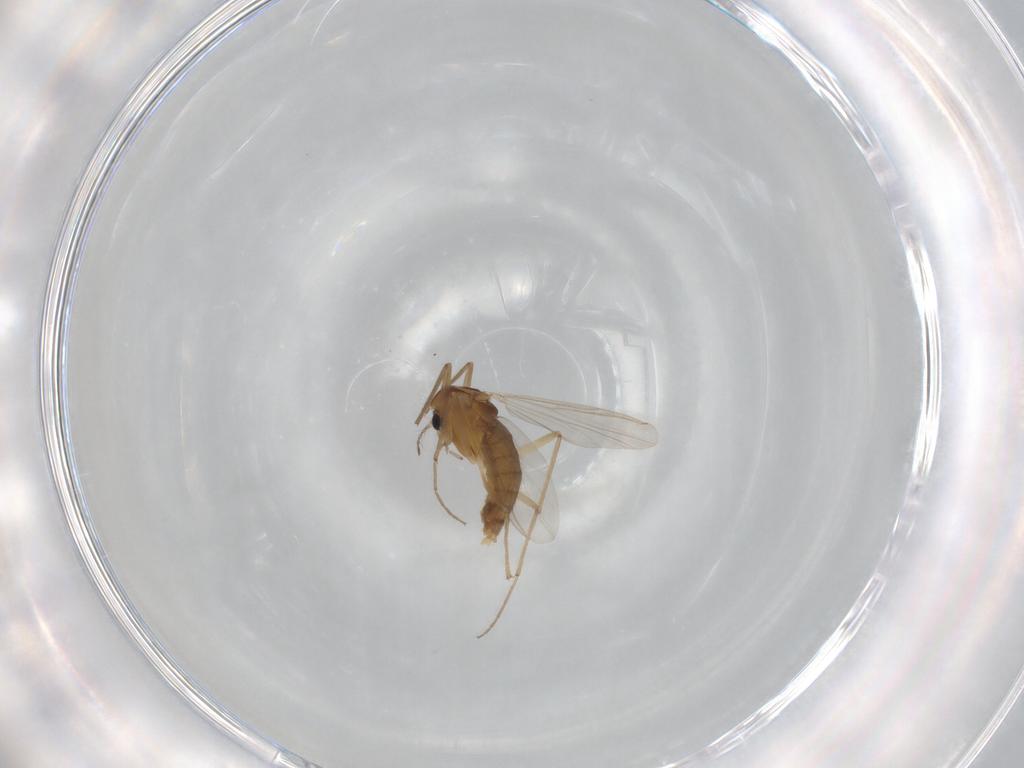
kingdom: Animalia
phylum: Arthropoda
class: Insecta
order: Diptera
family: Chironomidae
